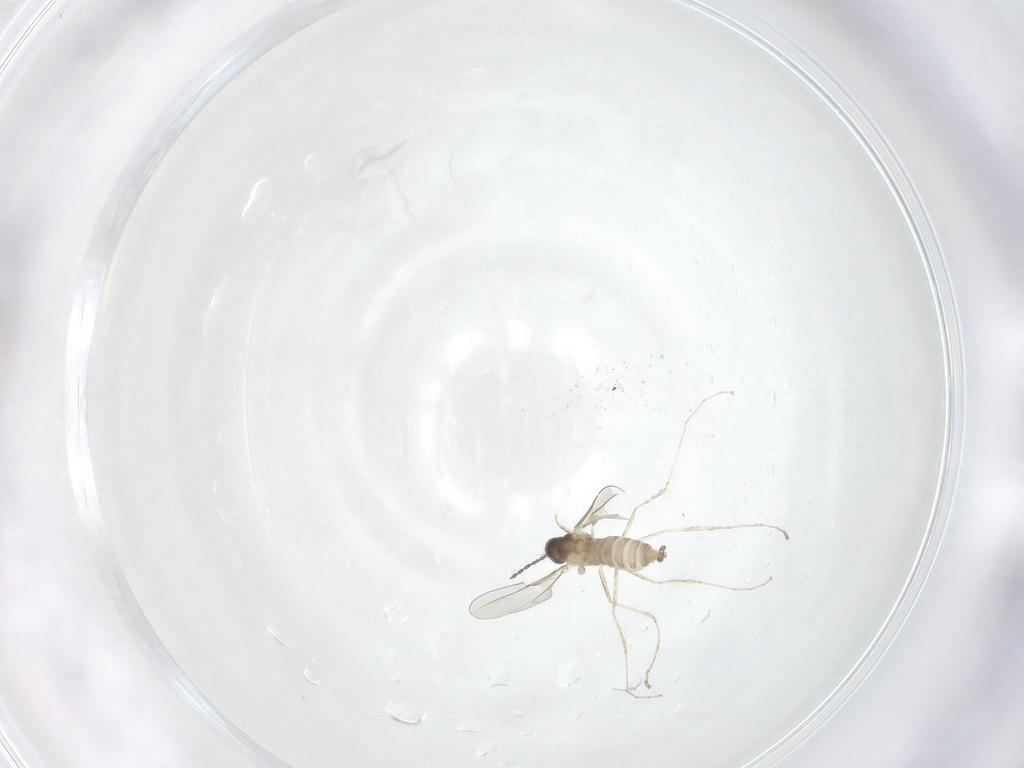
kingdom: Animalia
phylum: Arthropoda
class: Insecta
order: Diptera
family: Cecidomyiidae
